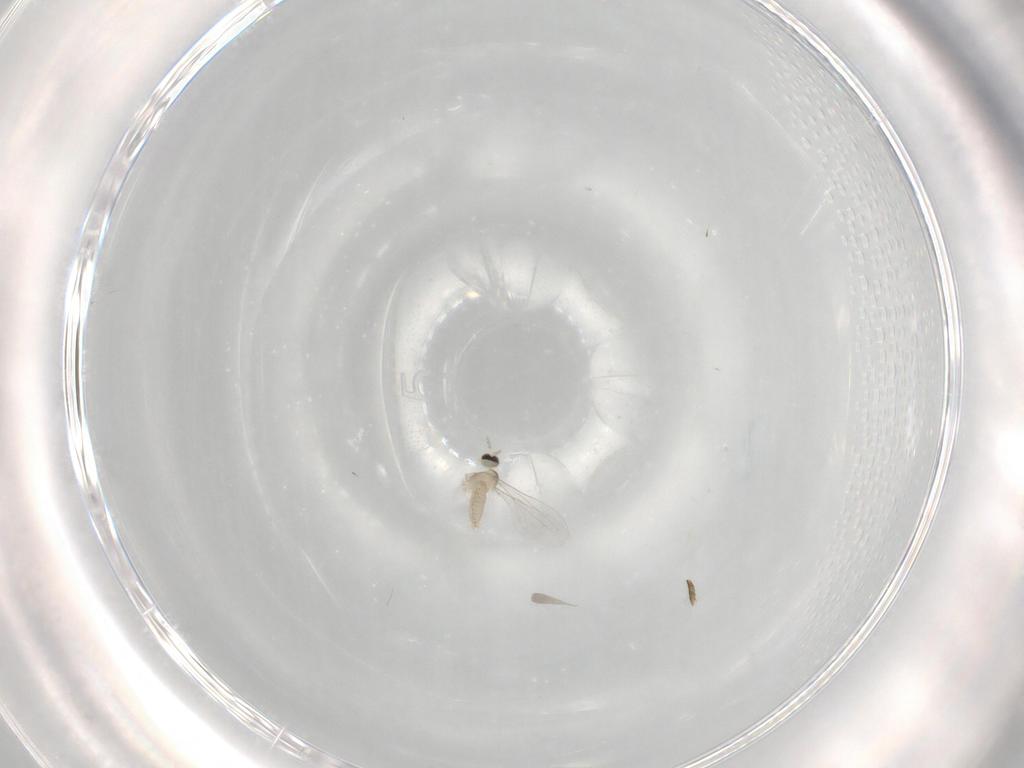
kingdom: Animalia
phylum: Arthropoda
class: Insecta
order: Diptera
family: Cecidomyiidae
